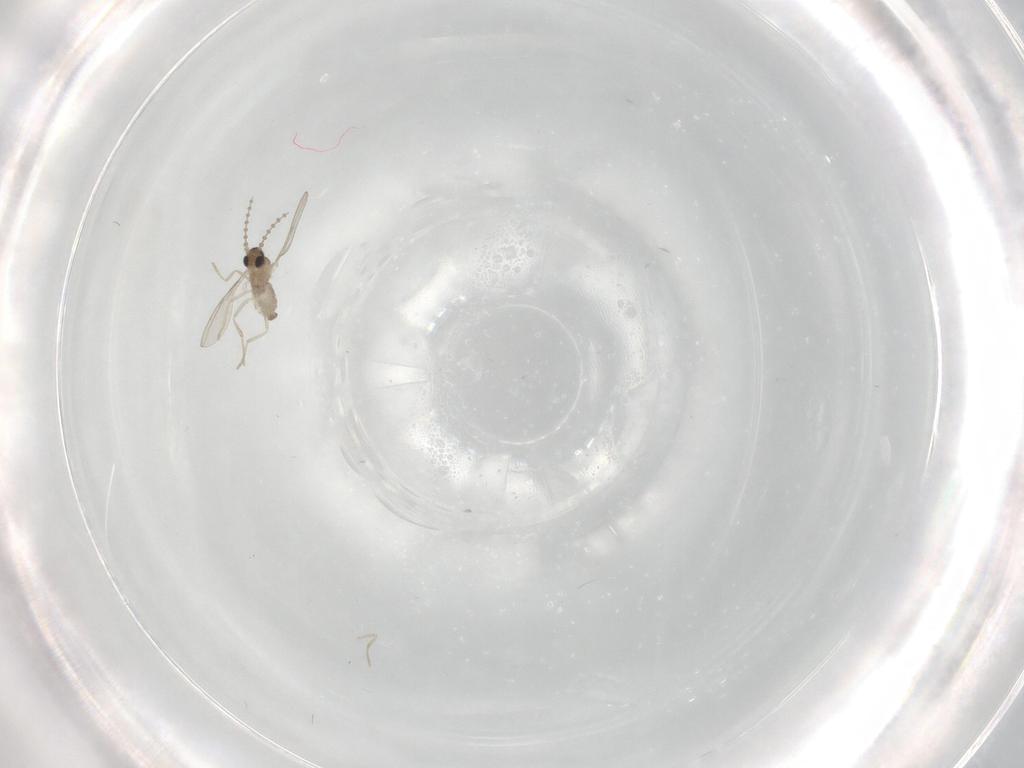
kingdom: Animalia
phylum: Arthropoda
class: Insecta
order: Diptera
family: Cecidomyiidae
